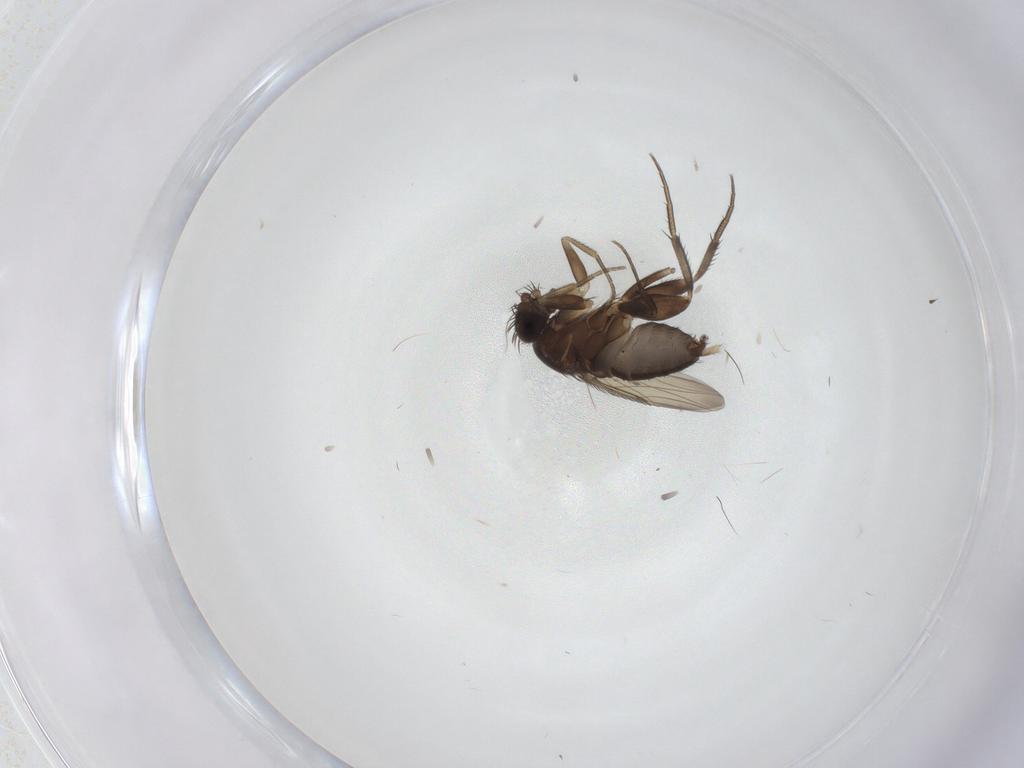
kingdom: Animalia
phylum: Arthropoda
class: Insecta
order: Diptera
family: Phoridae
